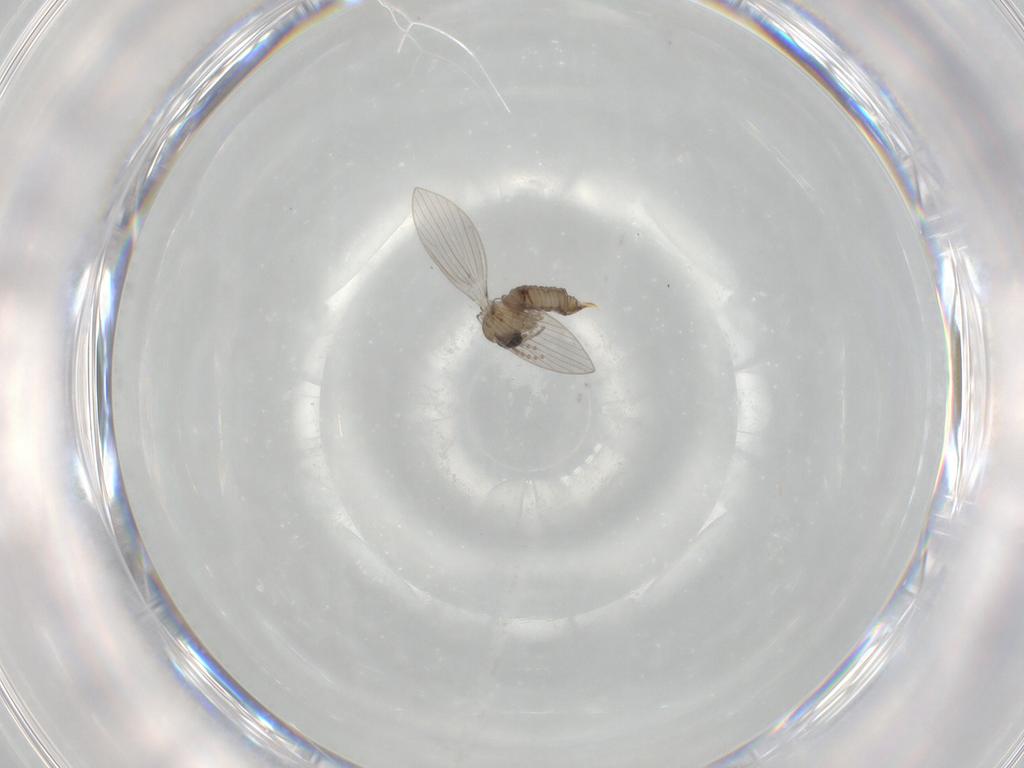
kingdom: Animalia
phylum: Arthropoda
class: Insecta
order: Diptera
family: Psychodidae
